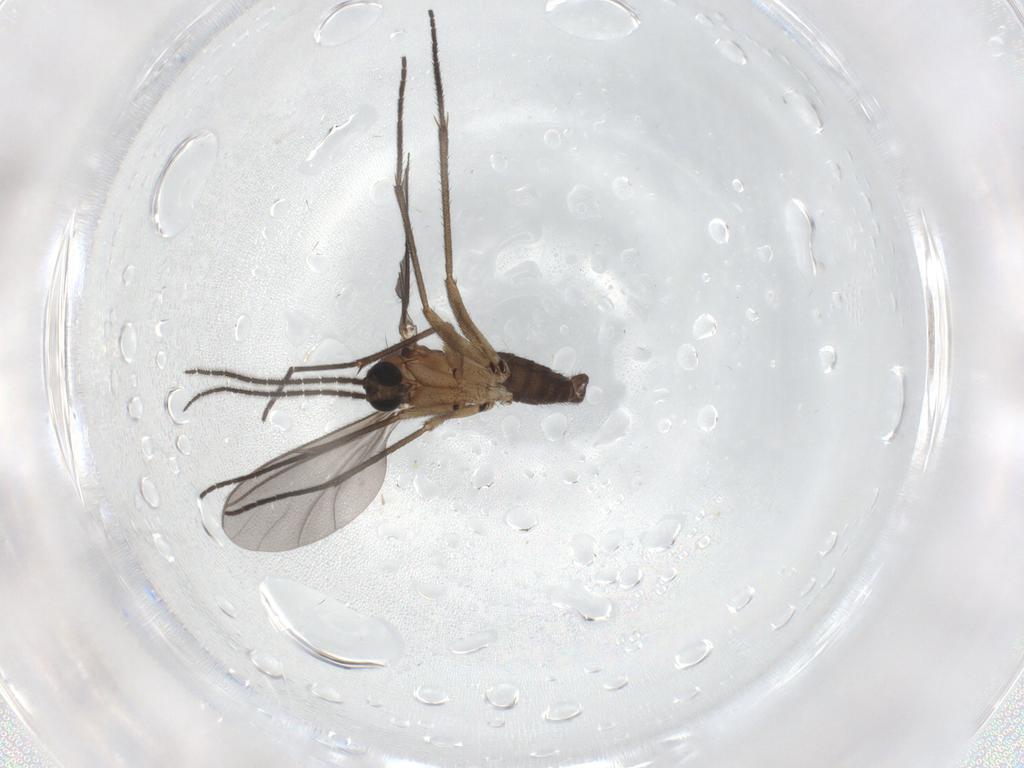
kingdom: Animalia
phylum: Arthropoda
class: Insecta
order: Diptera
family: Sciaridae
